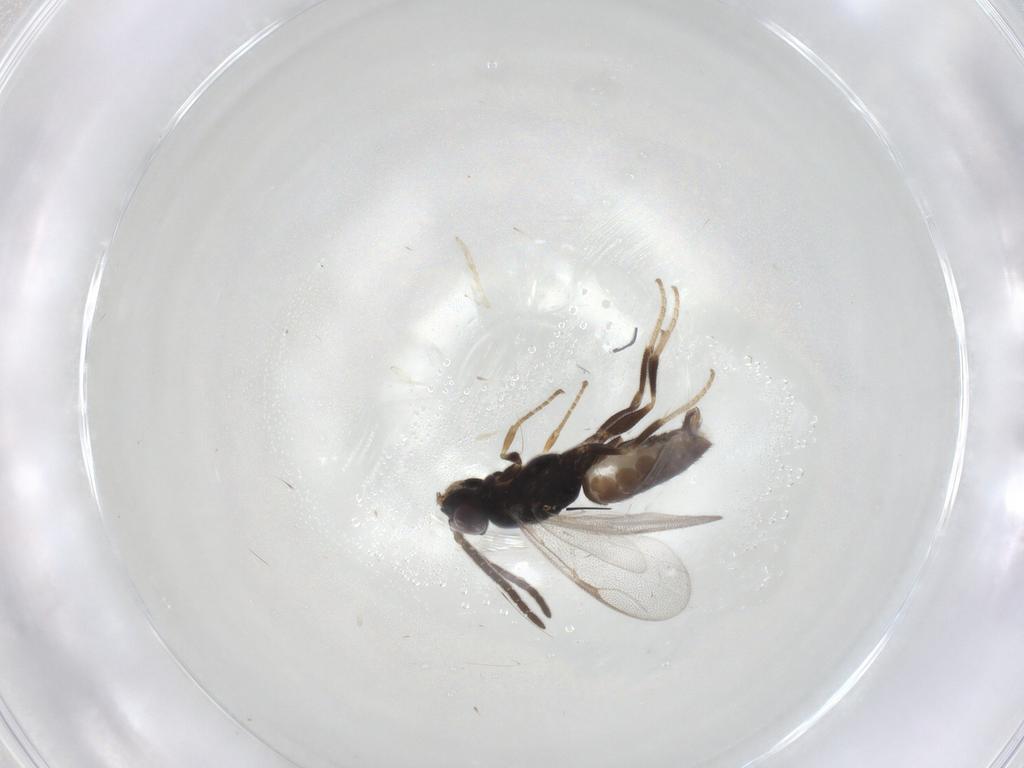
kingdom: Animalia
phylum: Arthropoda
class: Insecta
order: Hymenoptera
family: Dryinidae
